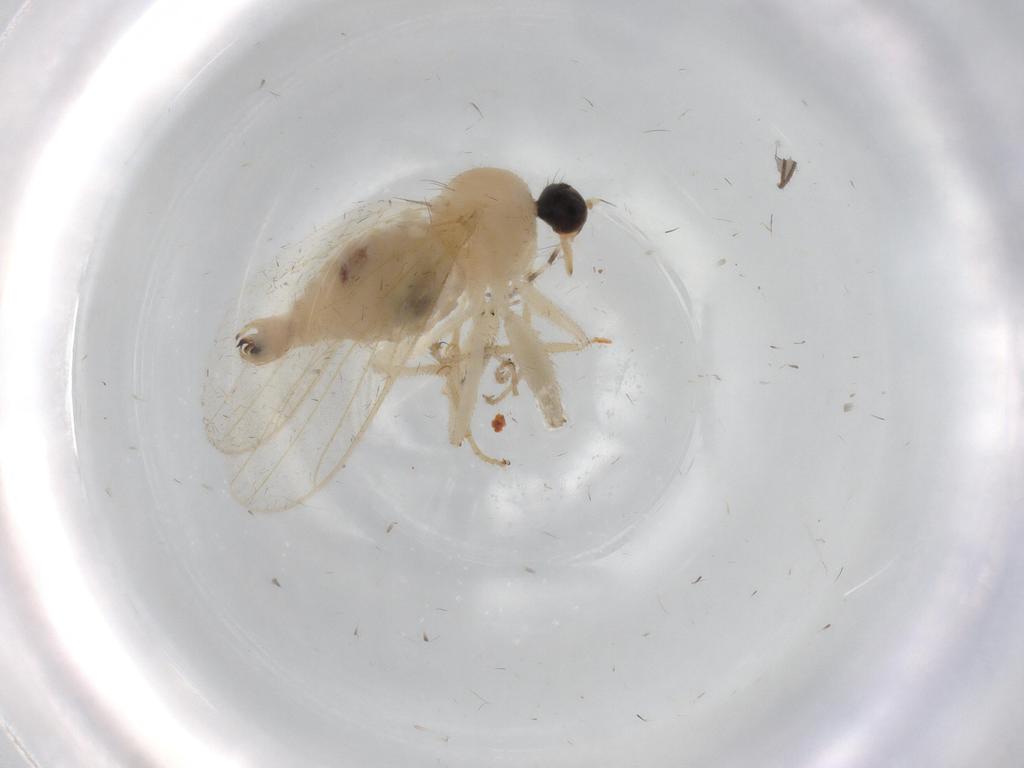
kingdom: Animalia
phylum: Arthropoda
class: Insecta
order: Diptera
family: Hybotidae
